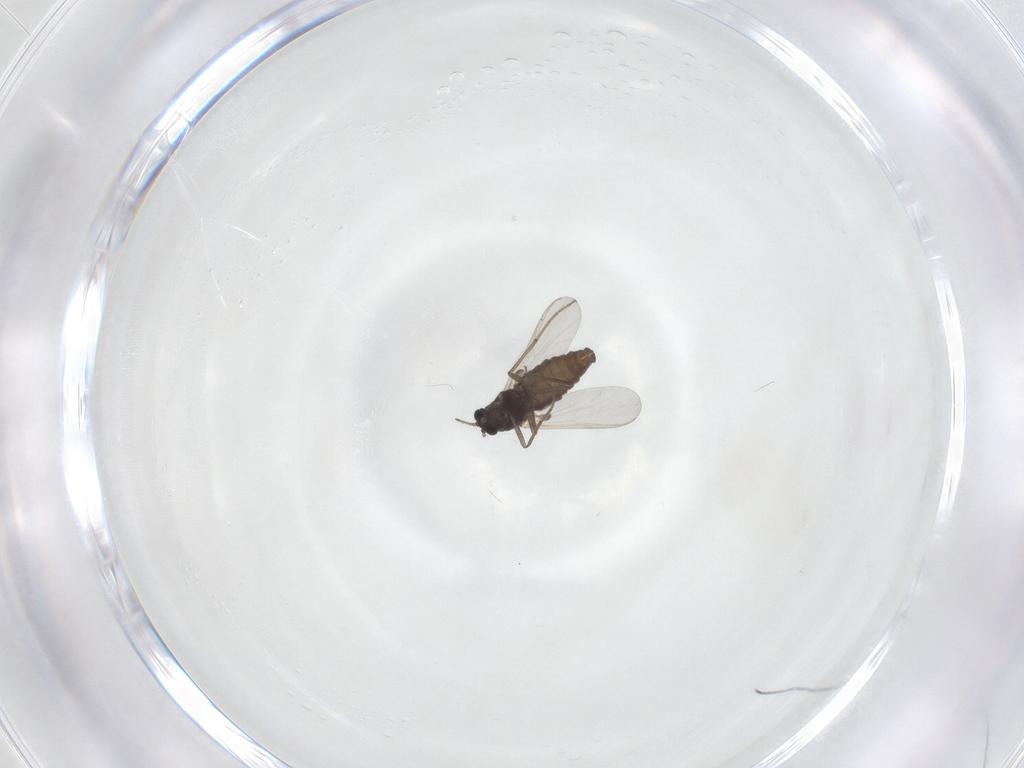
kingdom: Animalia
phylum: Arthropoda
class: Insecta
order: Diptera
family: Chironomidae
